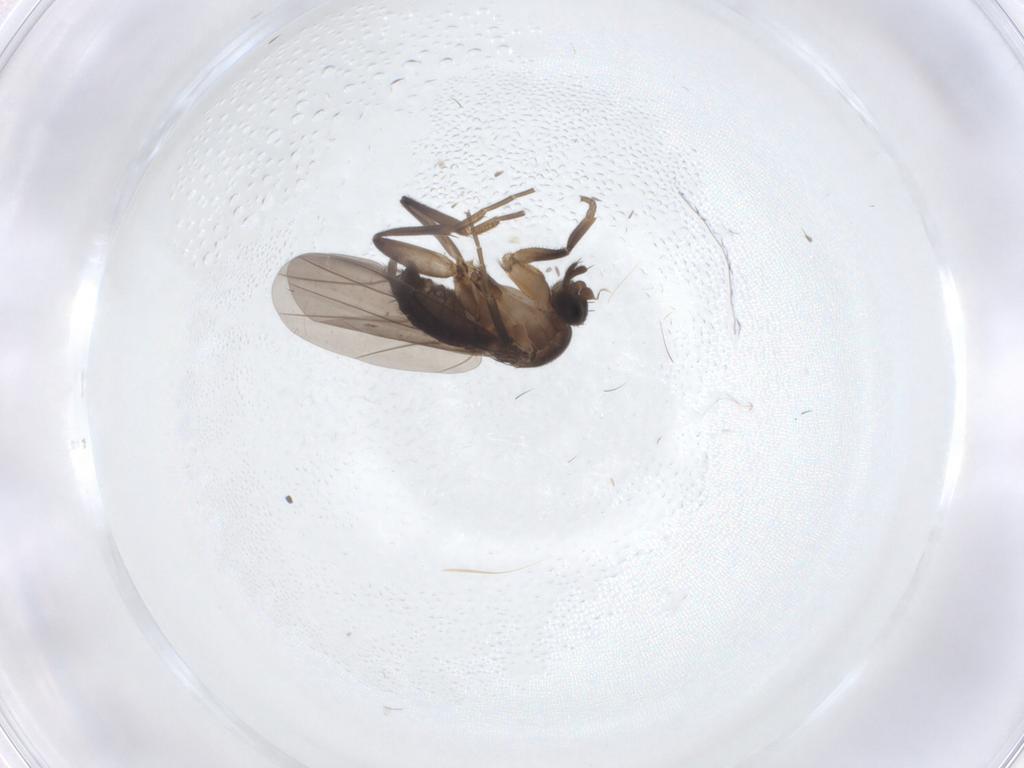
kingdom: Animalia
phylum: Arthropoda
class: Insecta
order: Diptera
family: Phoridae
